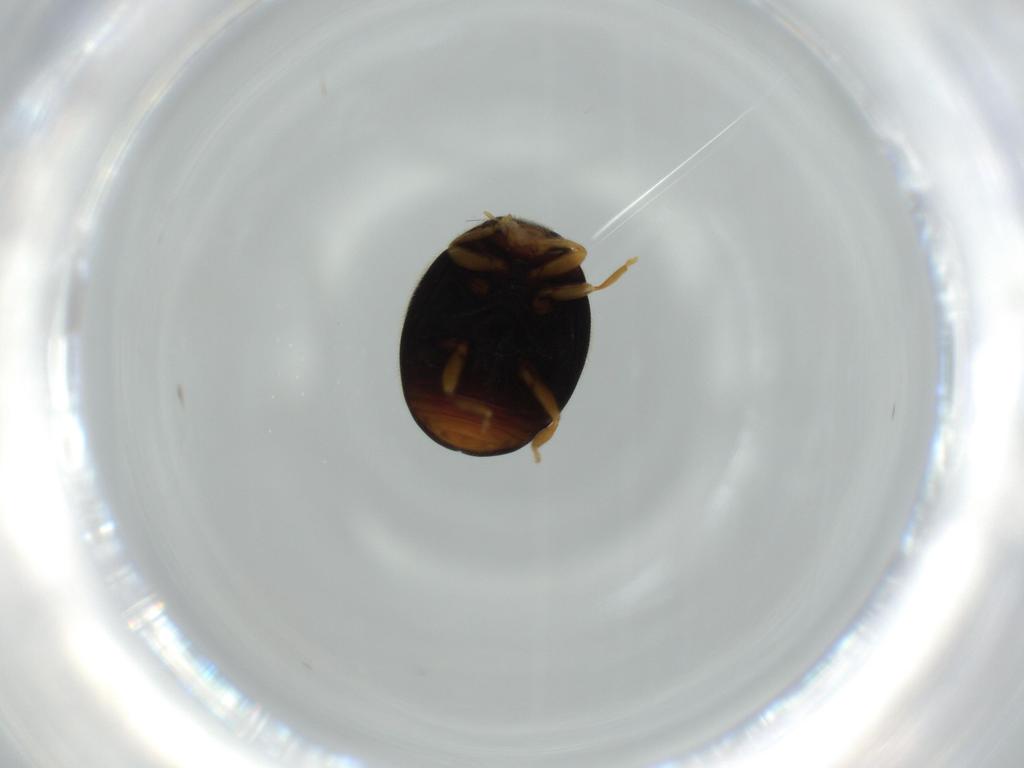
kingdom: Animalia
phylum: Arthropoda
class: Insecta
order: Coleoptera
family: Coccinellidae
